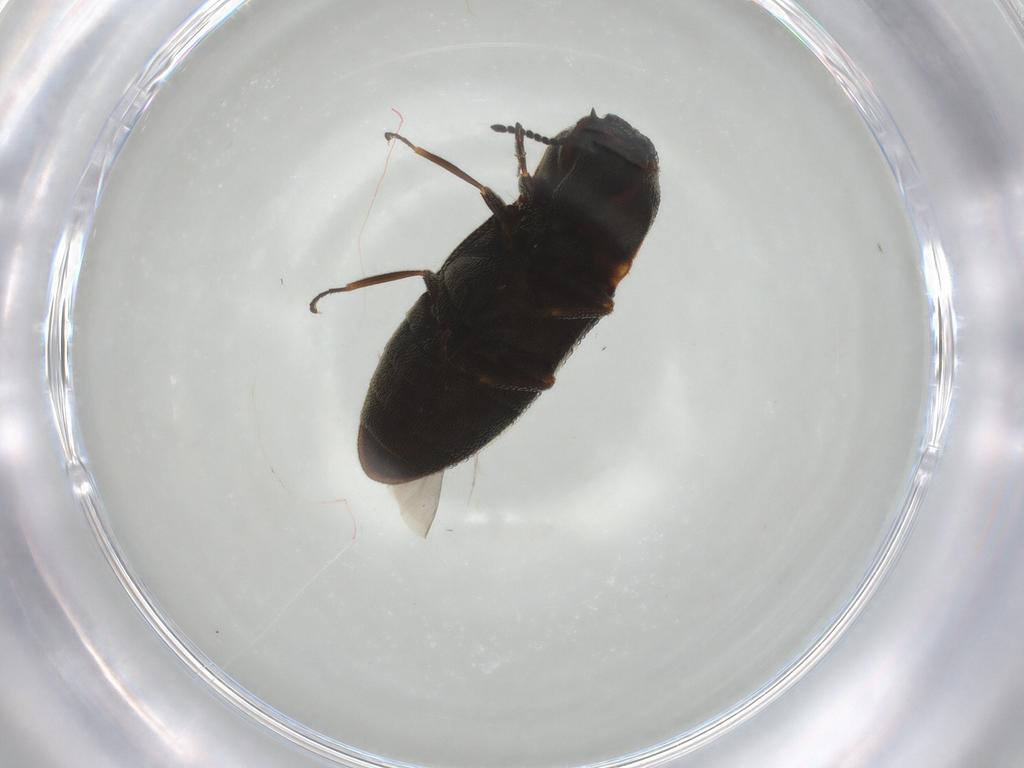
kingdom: Animalia
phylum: Arthropoda
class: Insecta
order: Coleoptera
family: Elateridae
